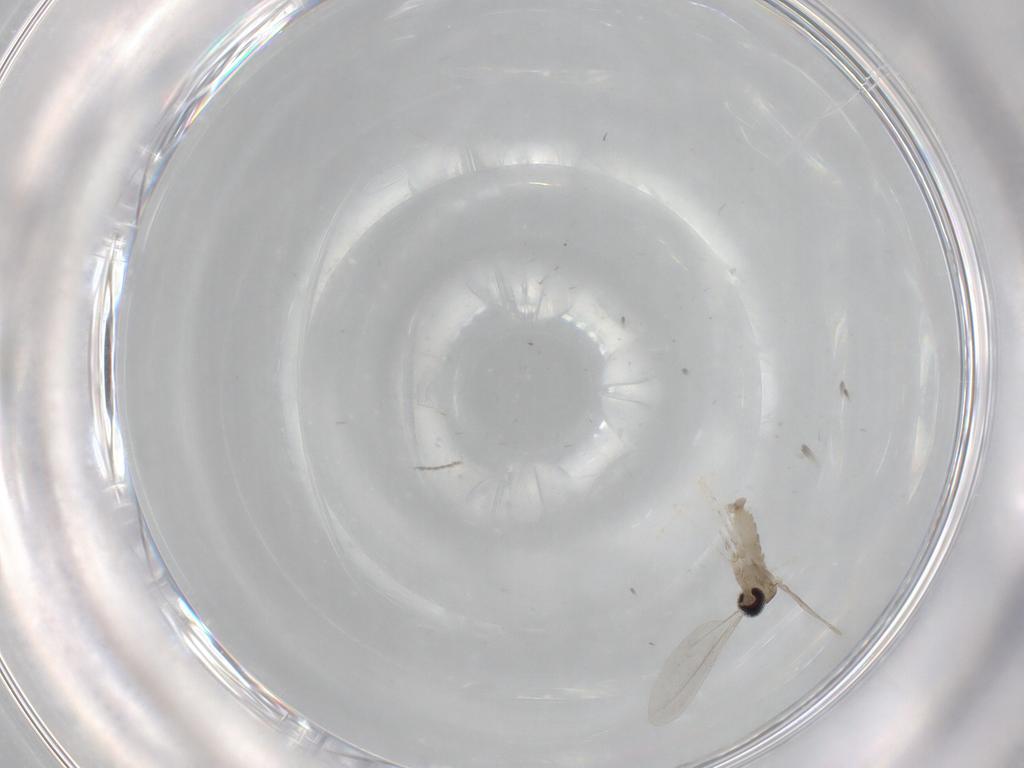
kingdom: Animalia
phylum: Arthropoda
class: Insecta
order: Diptera
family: Cecidomyiidae
